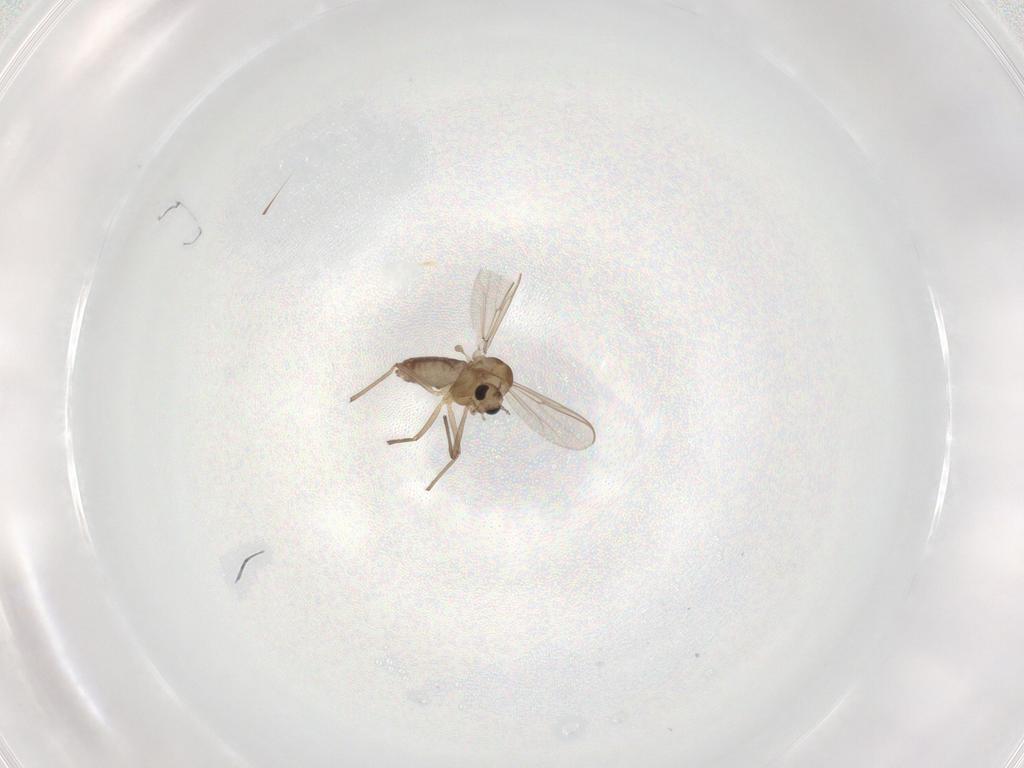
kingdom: Animalia
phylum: Arthropoda
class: Insecta
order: Diptera
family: Chironomidae
